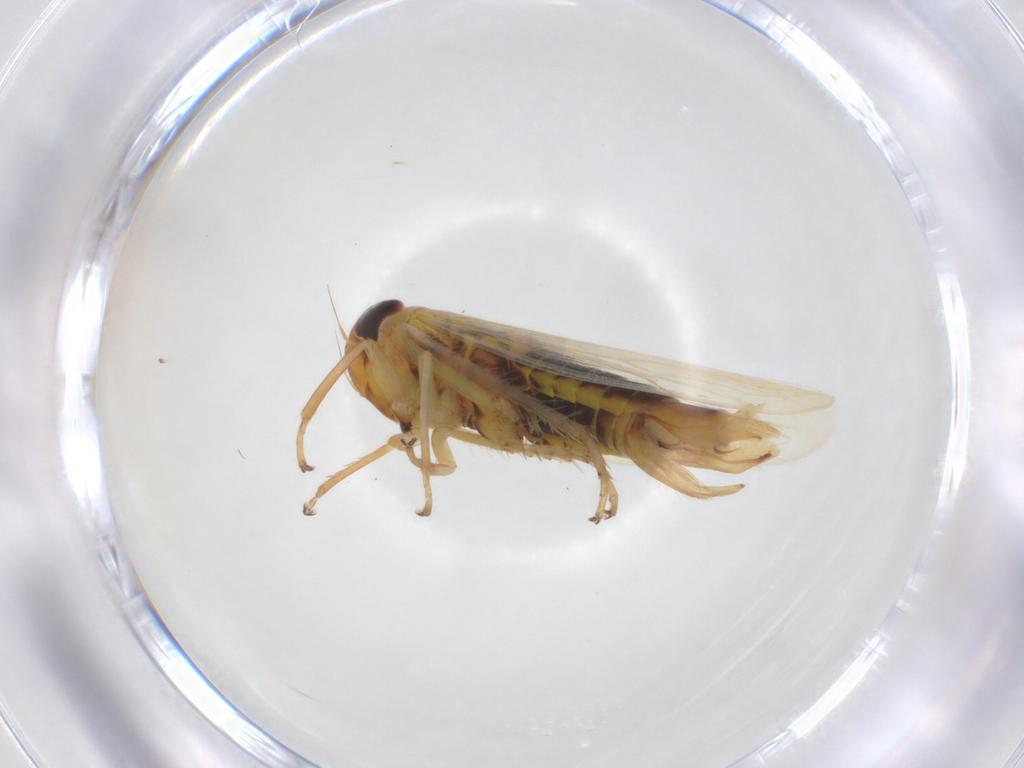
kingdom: Animalia
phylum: Arthropoda
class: Insecta
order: Hemiptera
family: Cicadellidae
